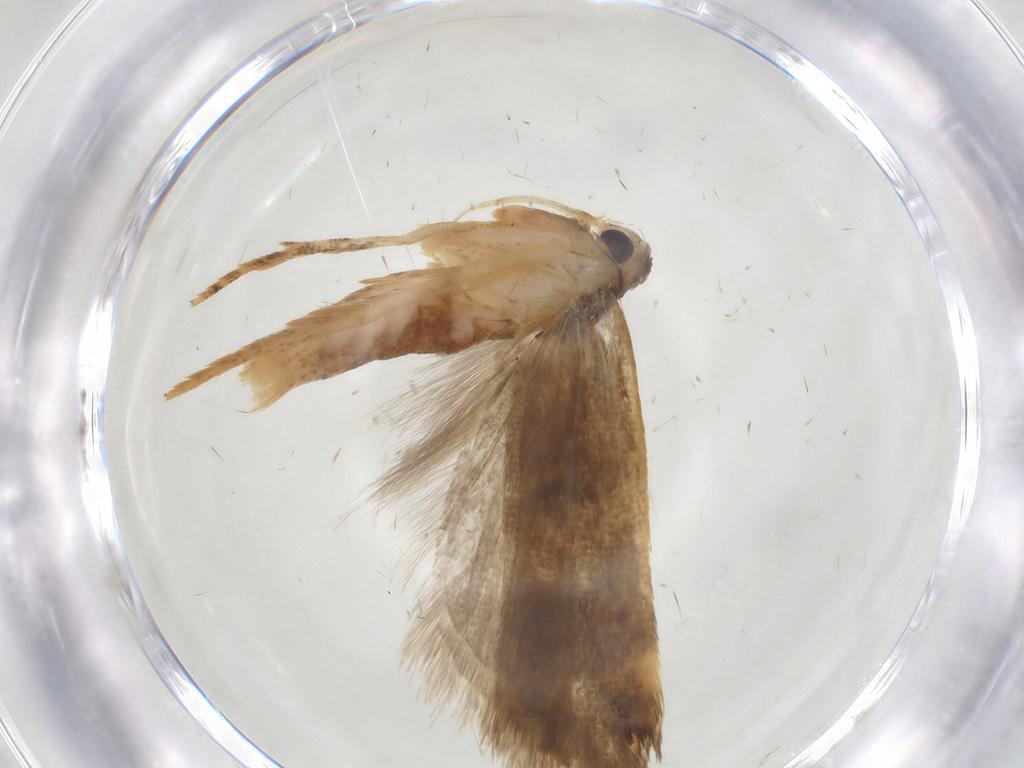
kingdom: Animalia
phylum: Arthropoda
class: Insecta
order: Lepidoptera
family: Gelechiidae
